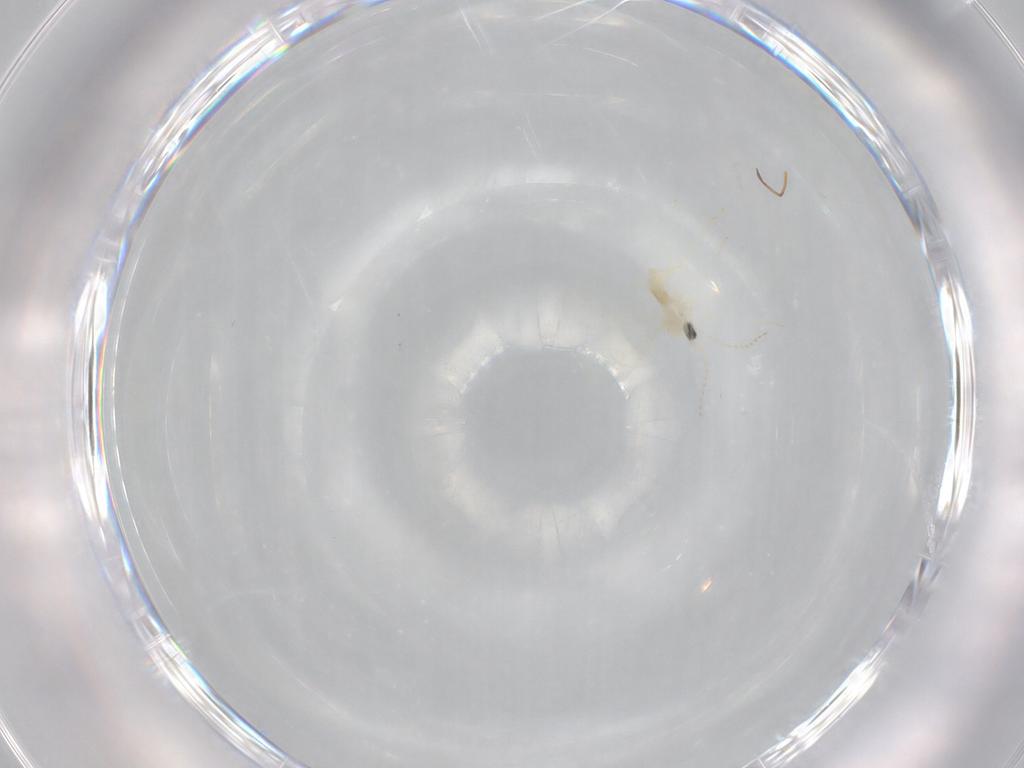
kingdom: Animalia
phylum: Arthropoda
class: Insecta
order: Diptera
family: Cecidomyiidae
